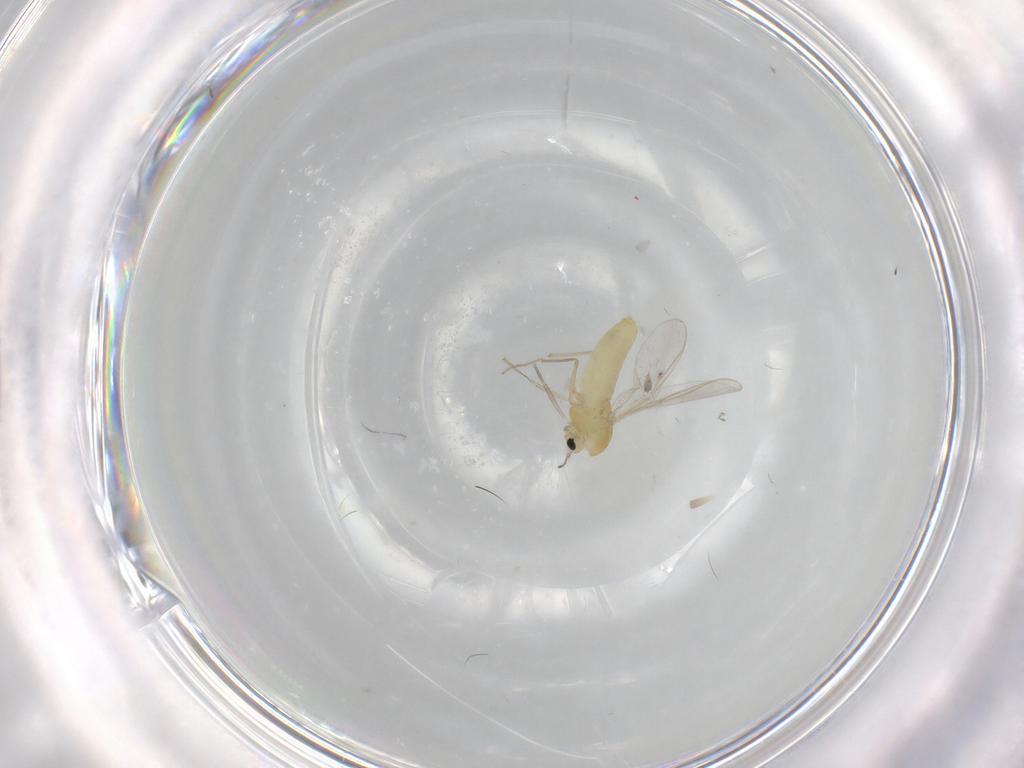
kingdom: Animalia
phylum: Arthropoda
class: Insecta
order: Diptera
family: Chironomidae
